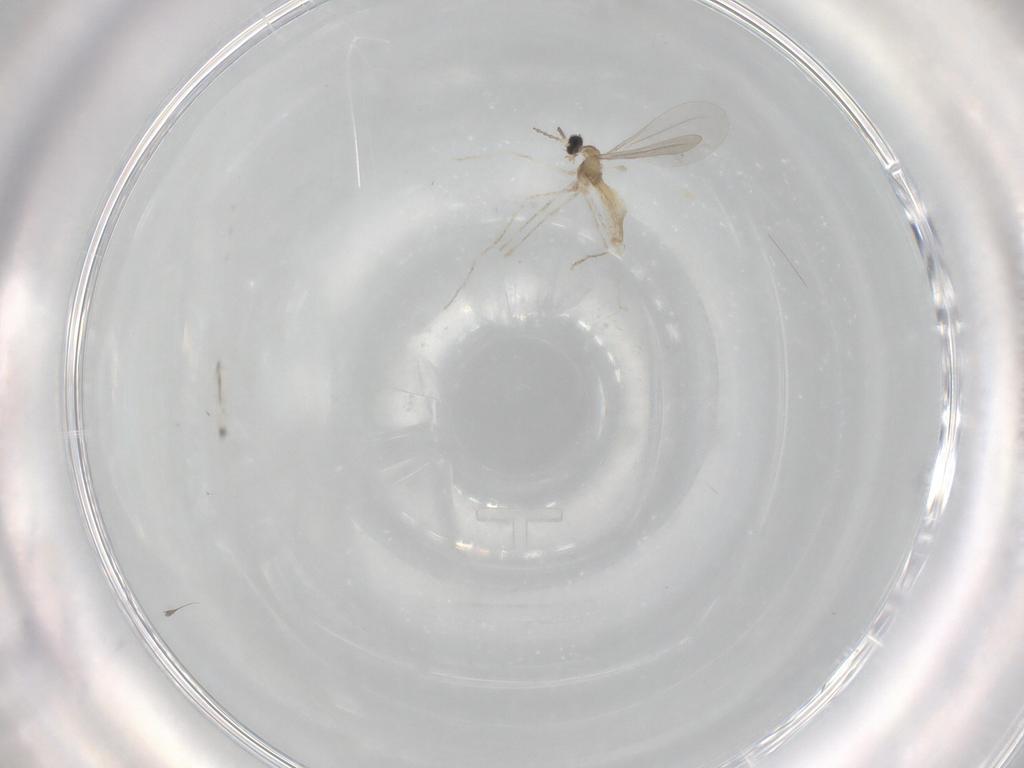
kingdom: Animalia
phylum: Arthropoda
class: Insecta
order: Diptera
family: Cecidomyiidae
